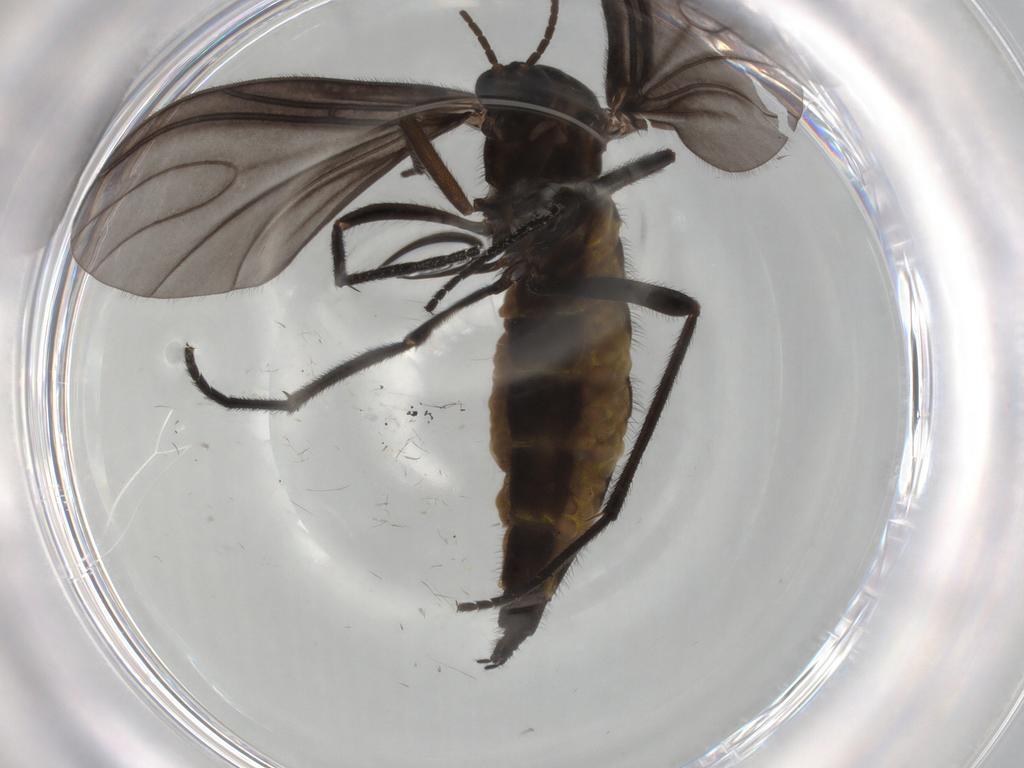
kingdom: Animalia
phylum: Arthropoda
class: Insecta
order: Diptera
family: Sciaridae
